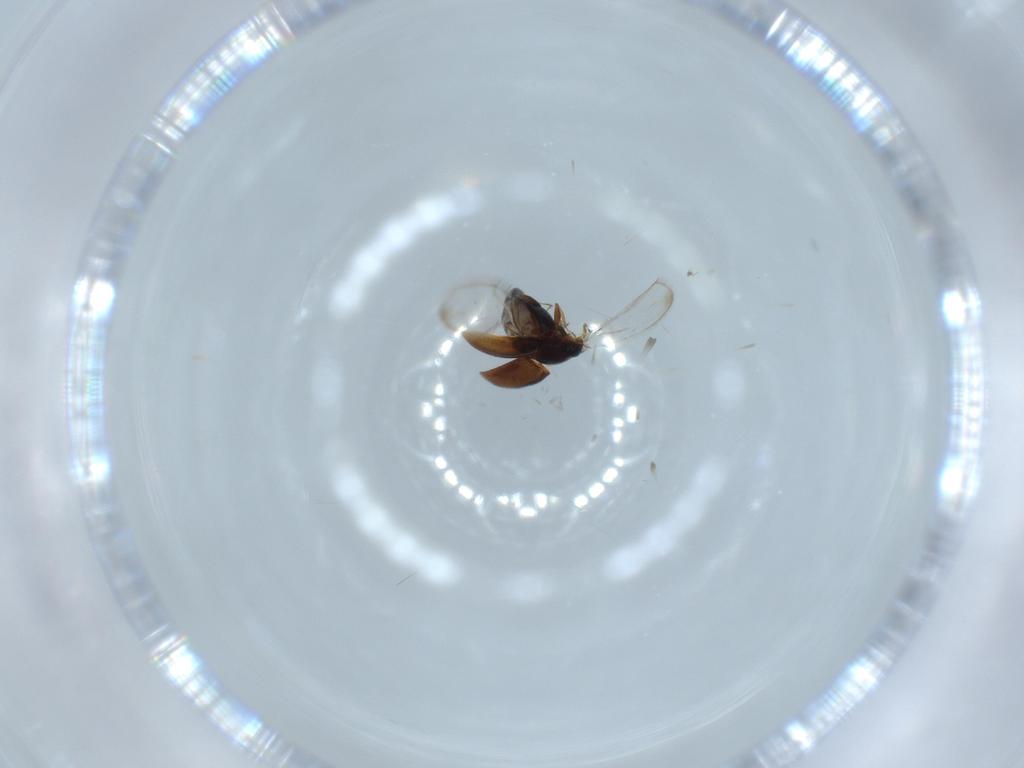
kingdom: Animalia
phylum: Arthropoda
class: Insecta
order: Coleoptera
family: Corylophidae
